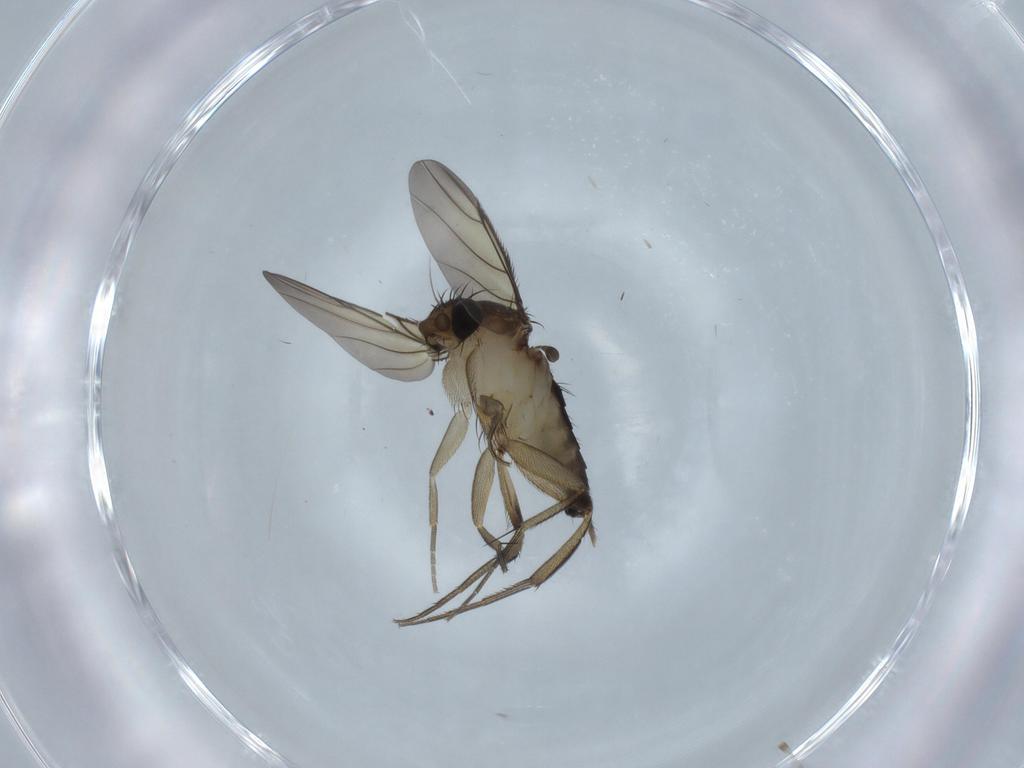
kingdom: Animalia
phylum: Arthropoda
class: Insecta
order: Diptera
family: Phoridae
